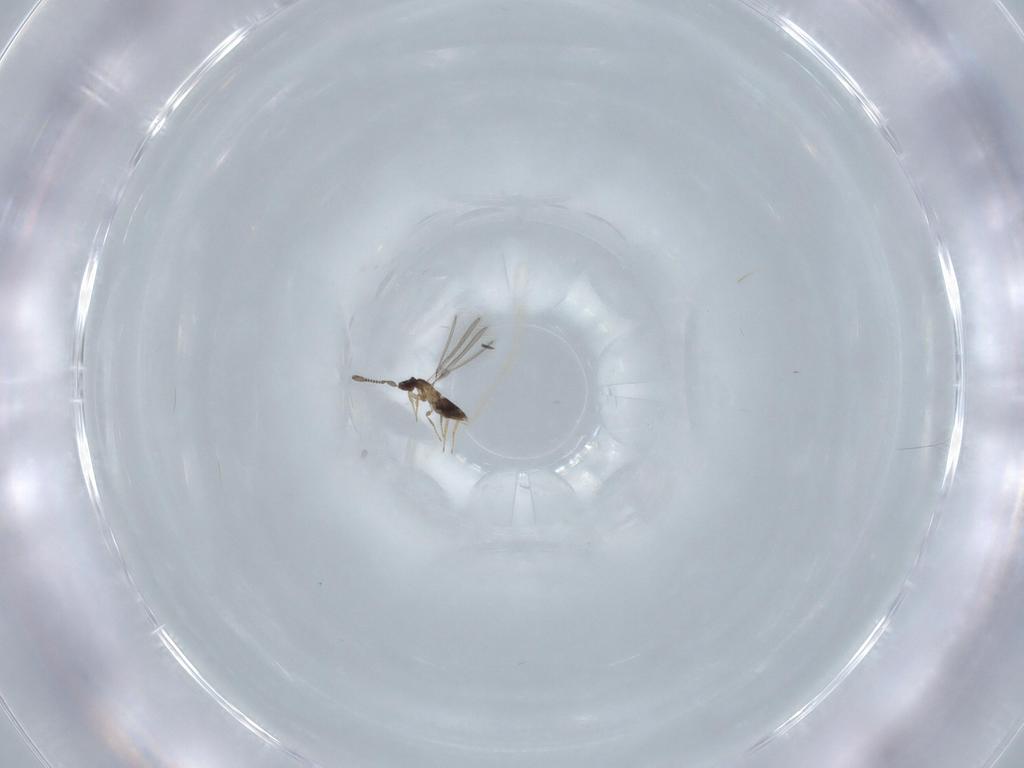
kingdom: Animalia
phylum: Arthropoda
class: Insecta
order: Hymenoptera
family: Mymaridae
